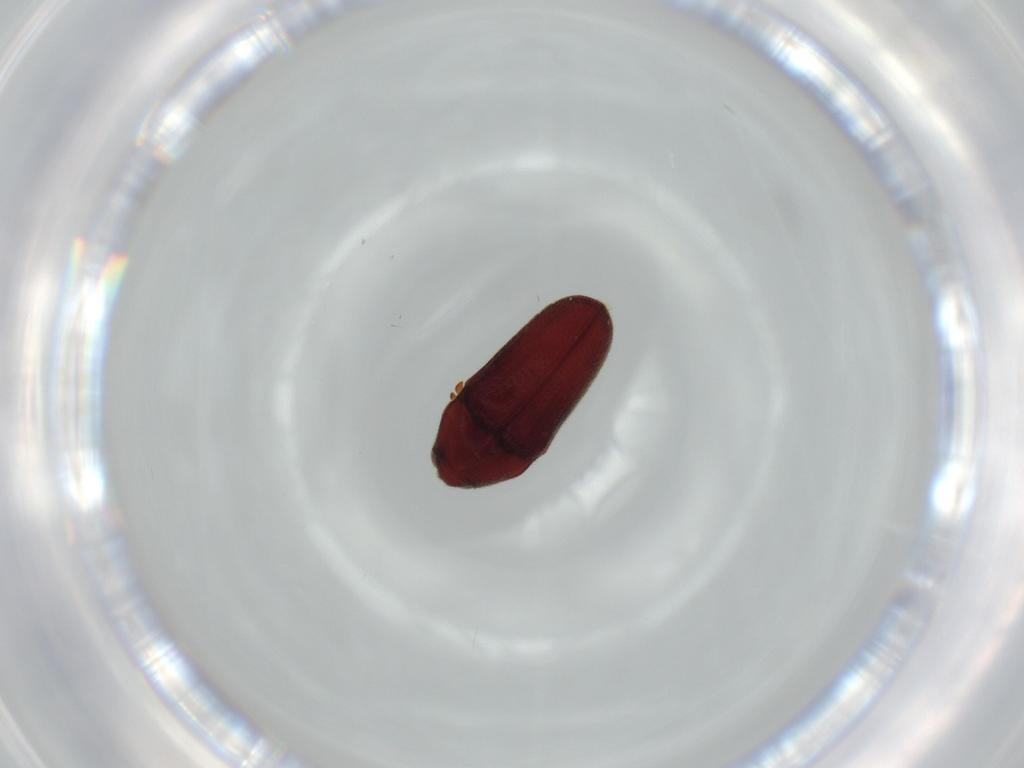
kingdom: Animalia
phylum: Arthropoda
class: Insecta
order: Coleoptera
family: Throscidae
